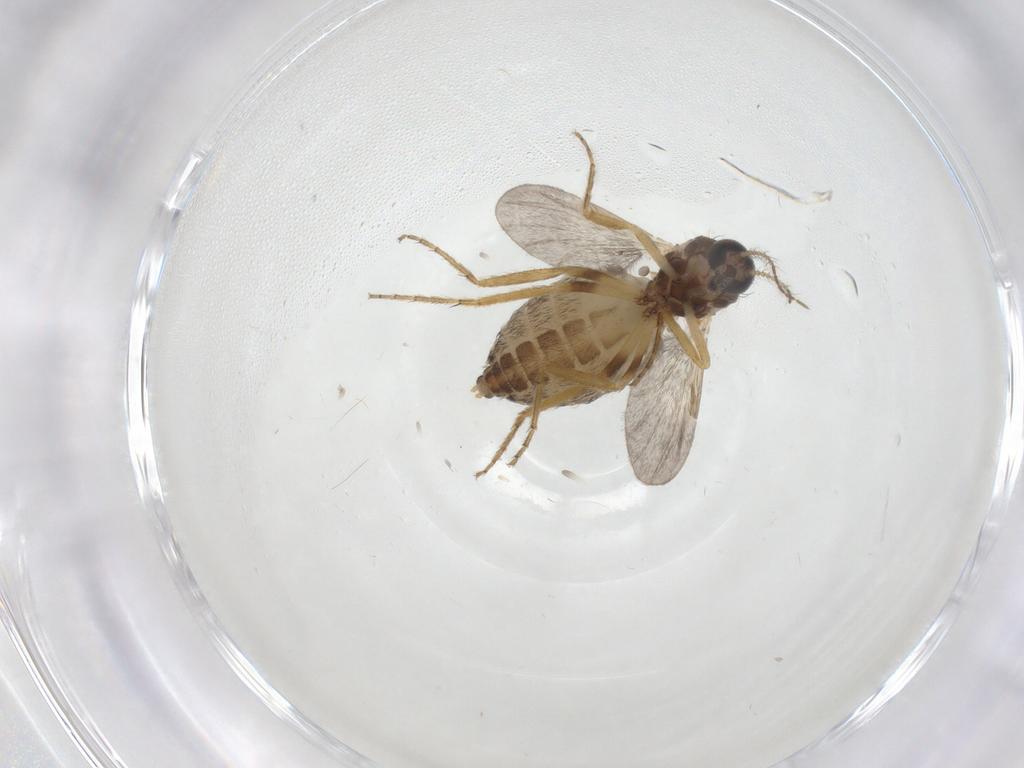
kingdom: Animalia
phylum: Arthropoda
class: Insecta
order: Diptera
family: Ceratopogonidae
